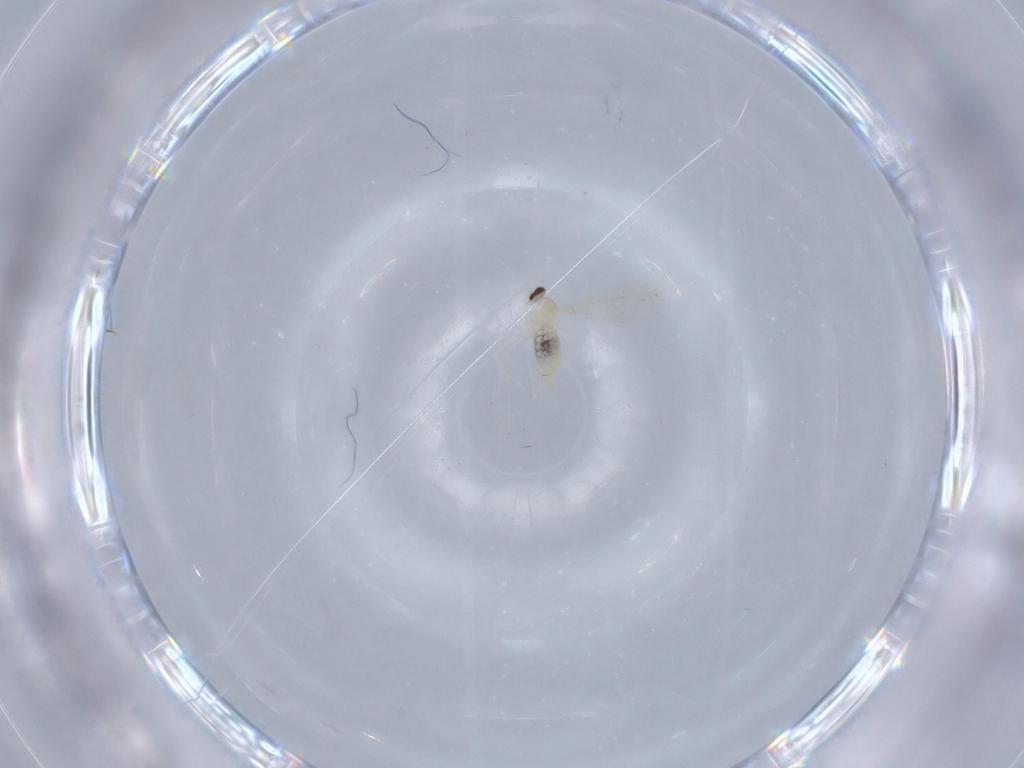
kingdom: Animalia
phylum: Arthropoda
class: Insecta
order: Diptera
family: Cecidomyiidae
